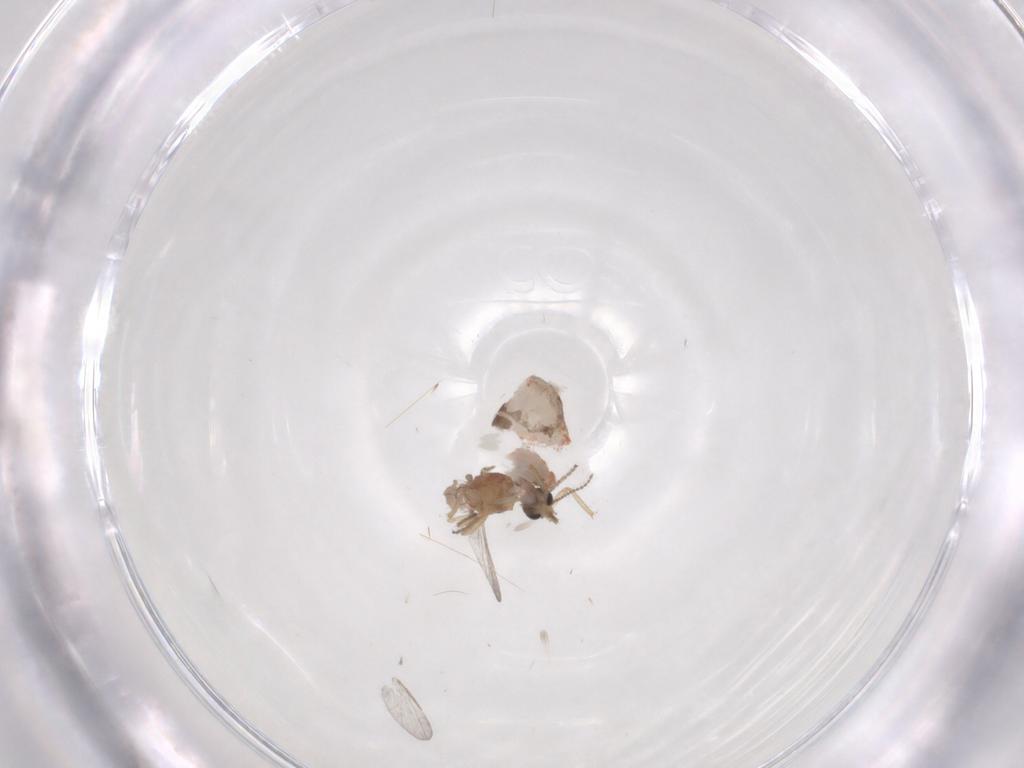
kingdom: Animalia
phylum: Arthropoda
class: Insecta
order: Diptera
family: Ceratopogonidae
